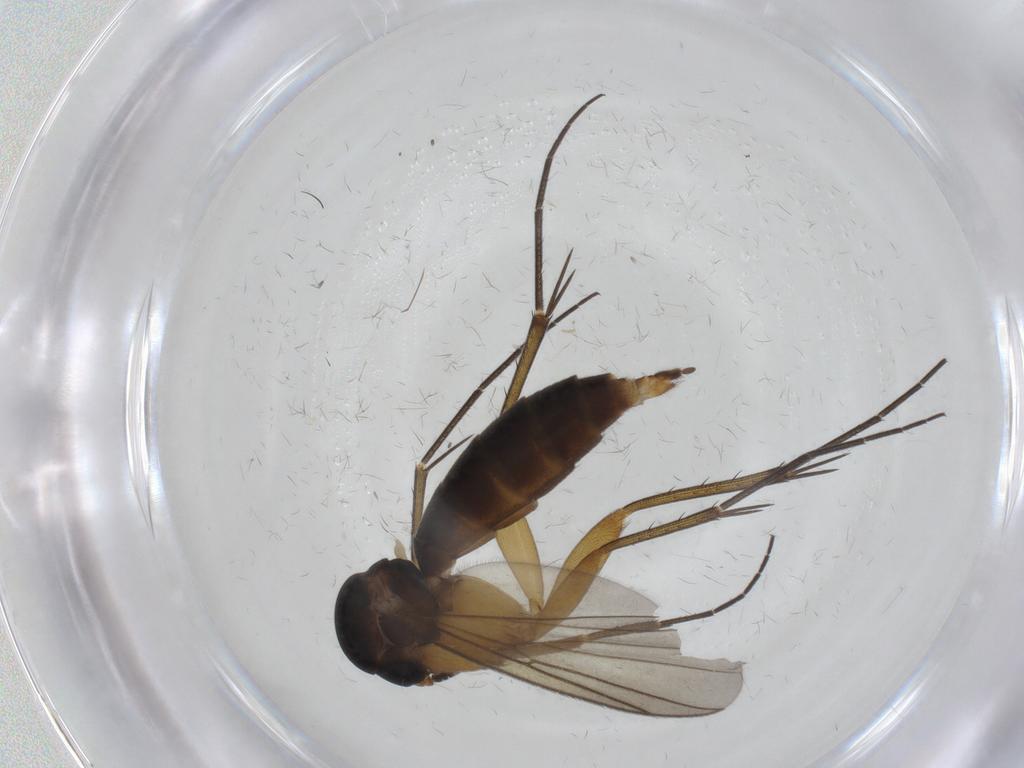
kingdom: Animalia
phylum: Arthropoda
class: Insecta
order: Diptera
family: Mycetophilidae
